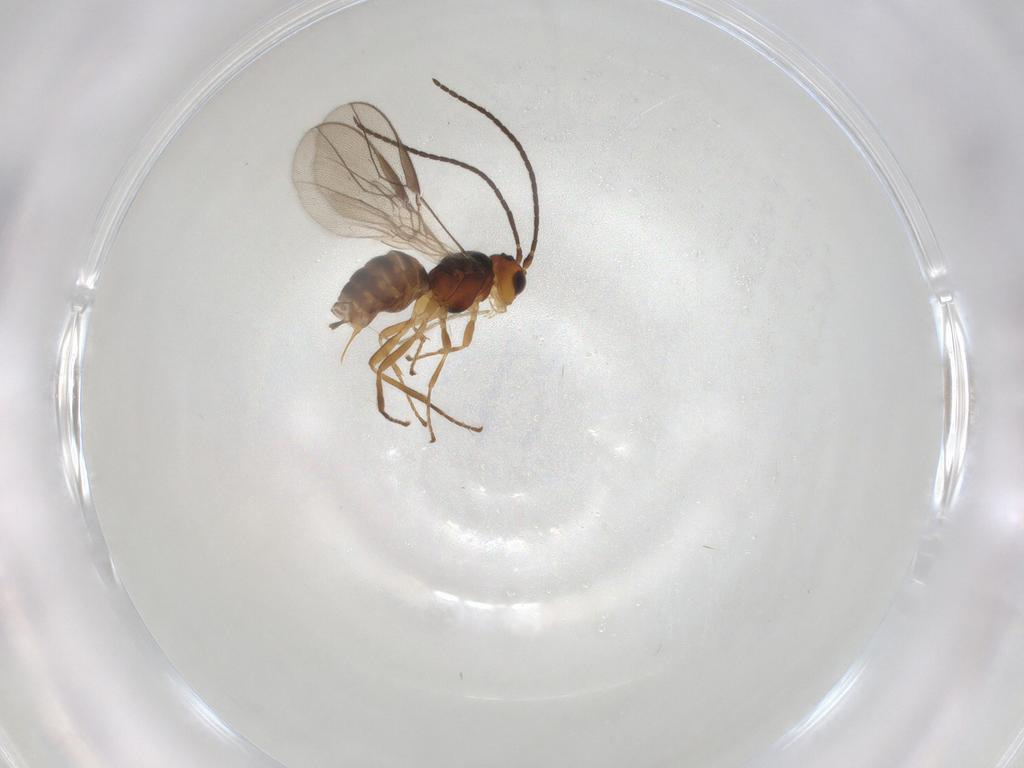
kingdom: Animalia
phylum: Arthropoda
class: Insecta
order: Hymenoptera
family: Braconidae
